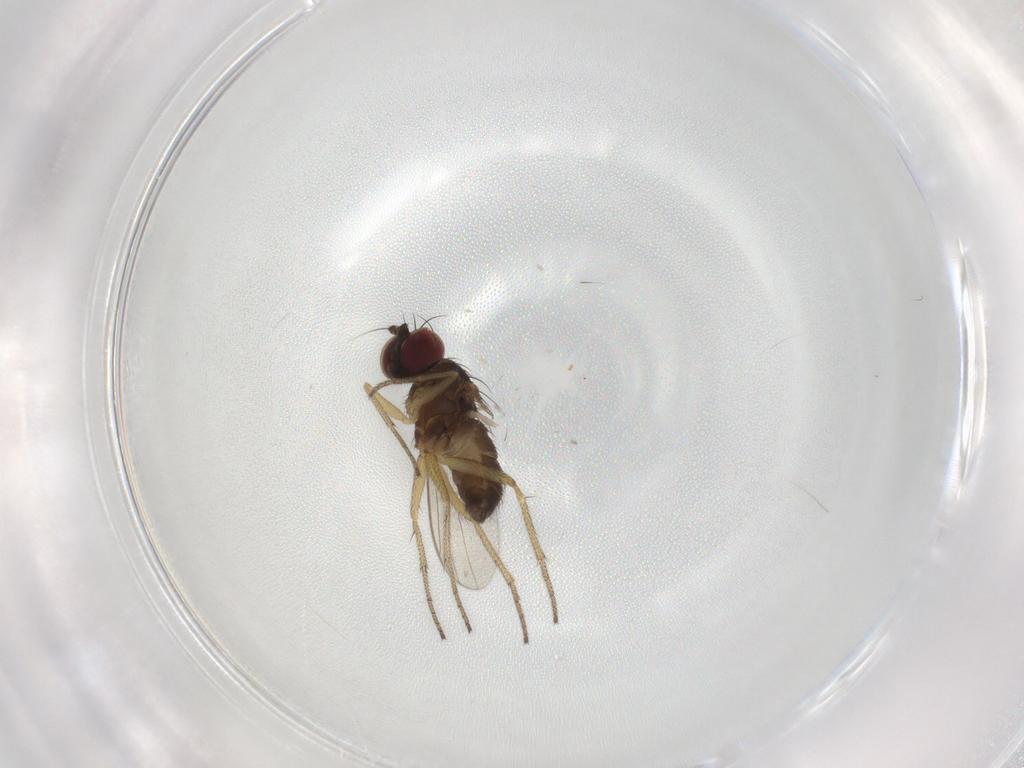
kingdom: Animalia
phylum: Arthropoda
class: Insecta
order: Diptera
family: Dolichopodidae
